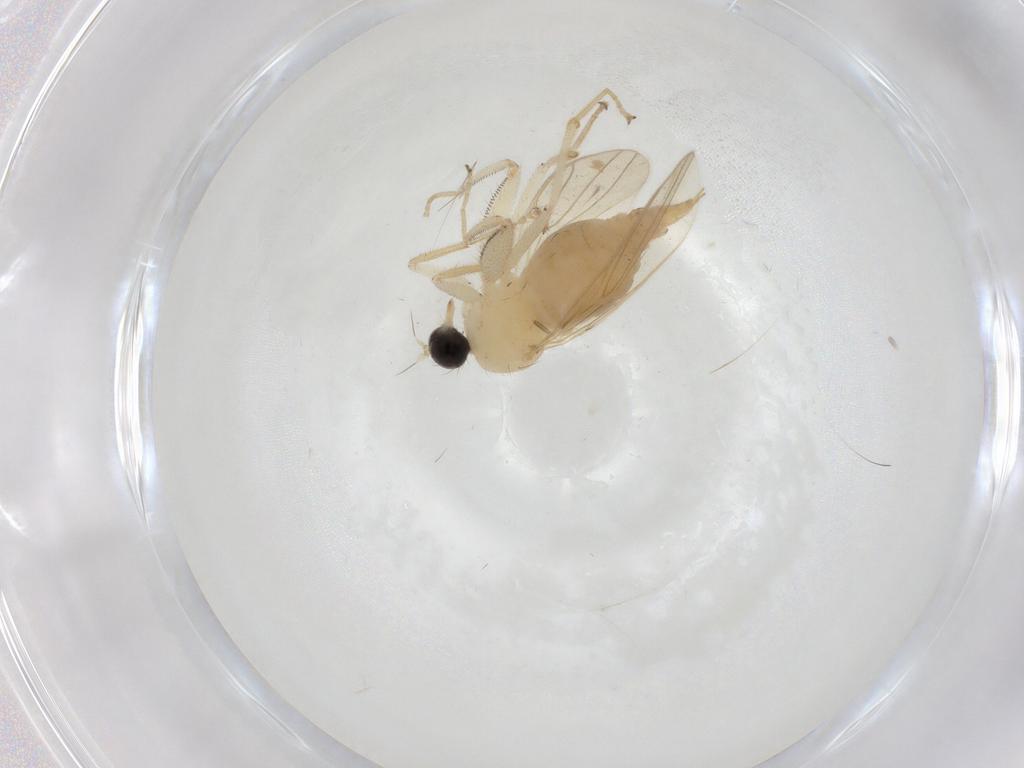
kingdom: Animalia
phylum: Arthropoda
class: Insecta
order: Diptera
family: Hybotidae
